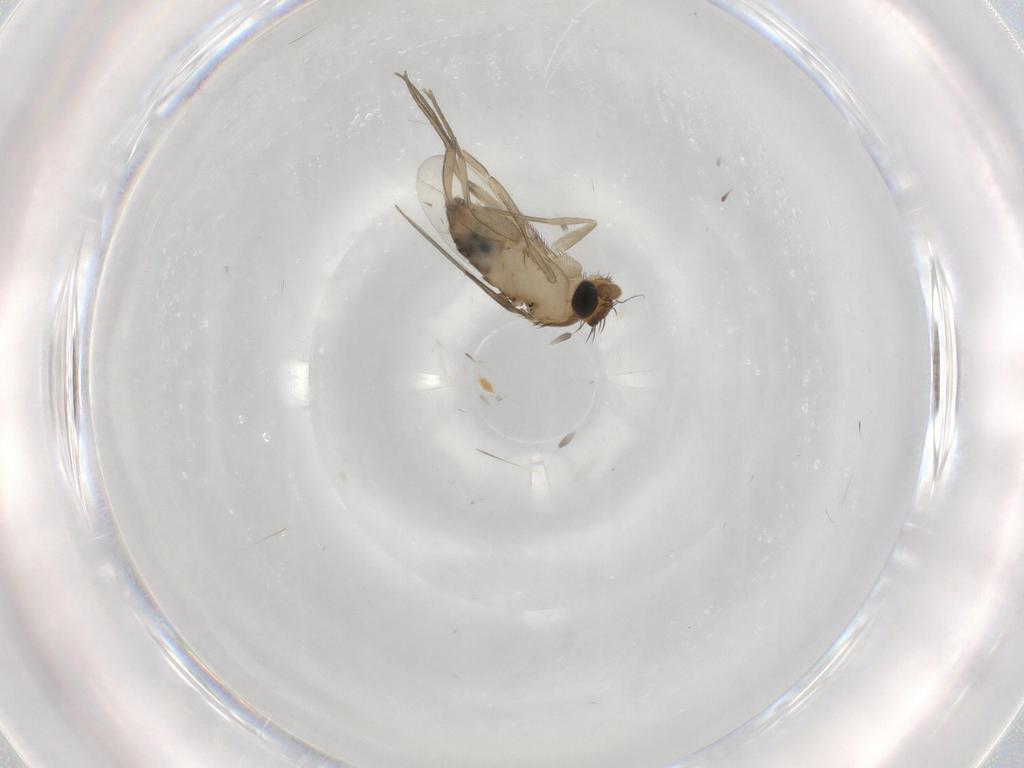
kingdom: Animalia
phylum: Arthropoda
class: Insecta
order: Diptera
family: Phoridae
